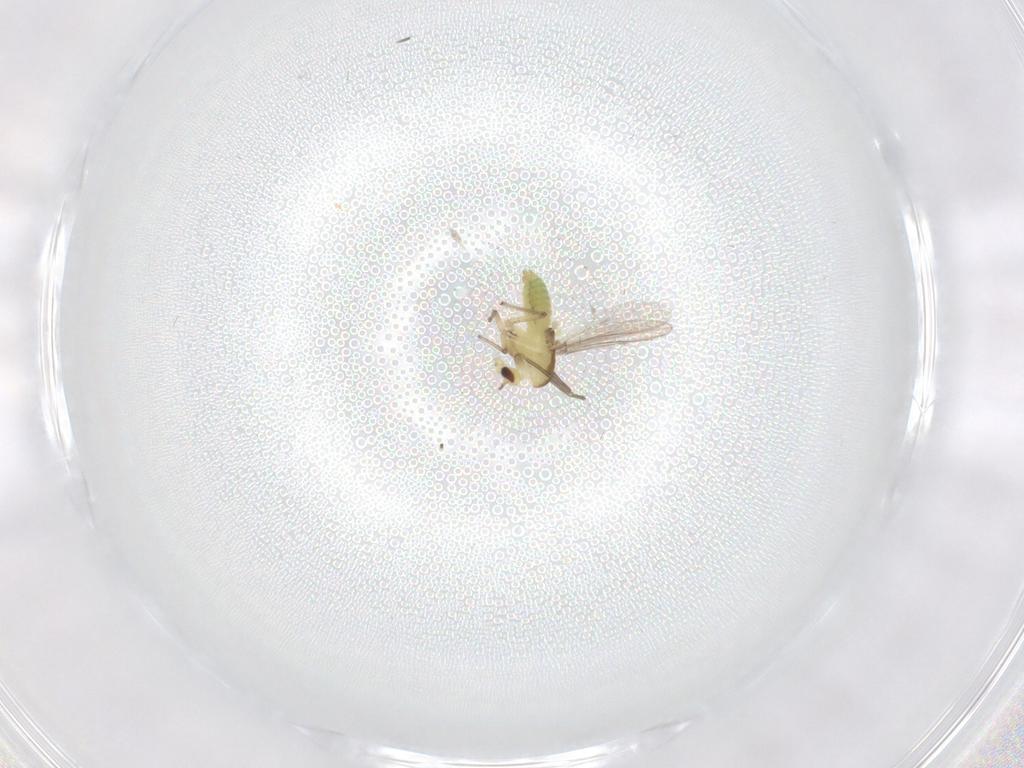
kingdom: Animalia
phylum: Arthropoda
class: Insecta
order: Diptera
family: Chironomidae
